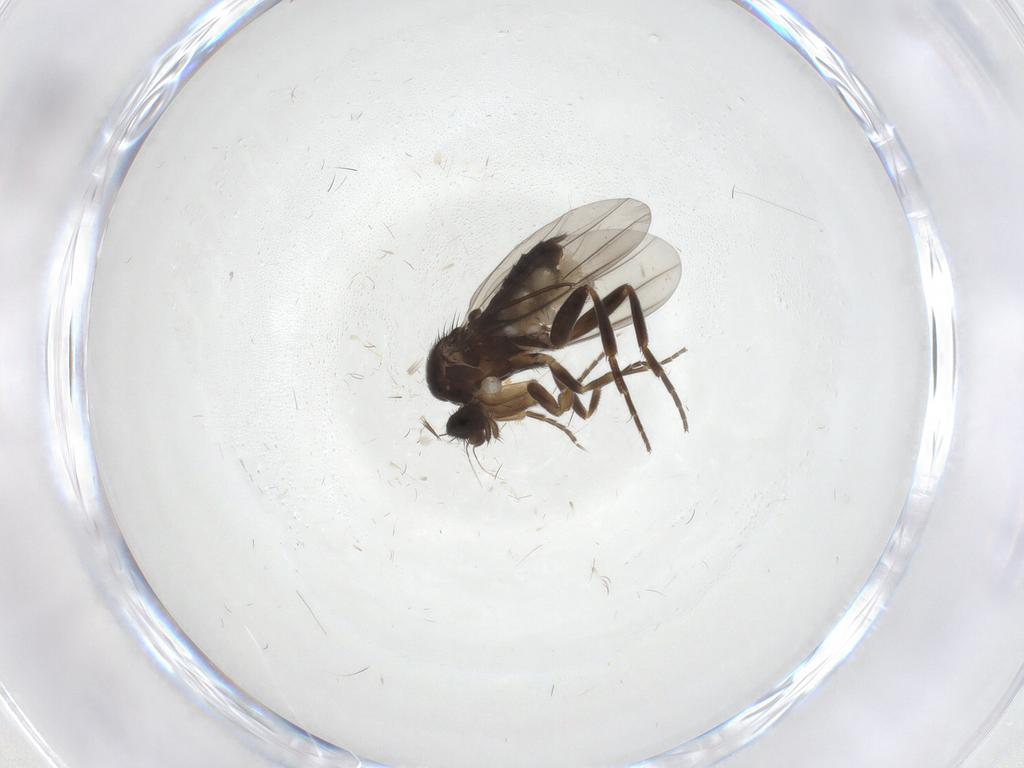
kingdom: Animalia
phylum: Arthropoda
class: Insecta
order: Diptera
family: Phoridae
